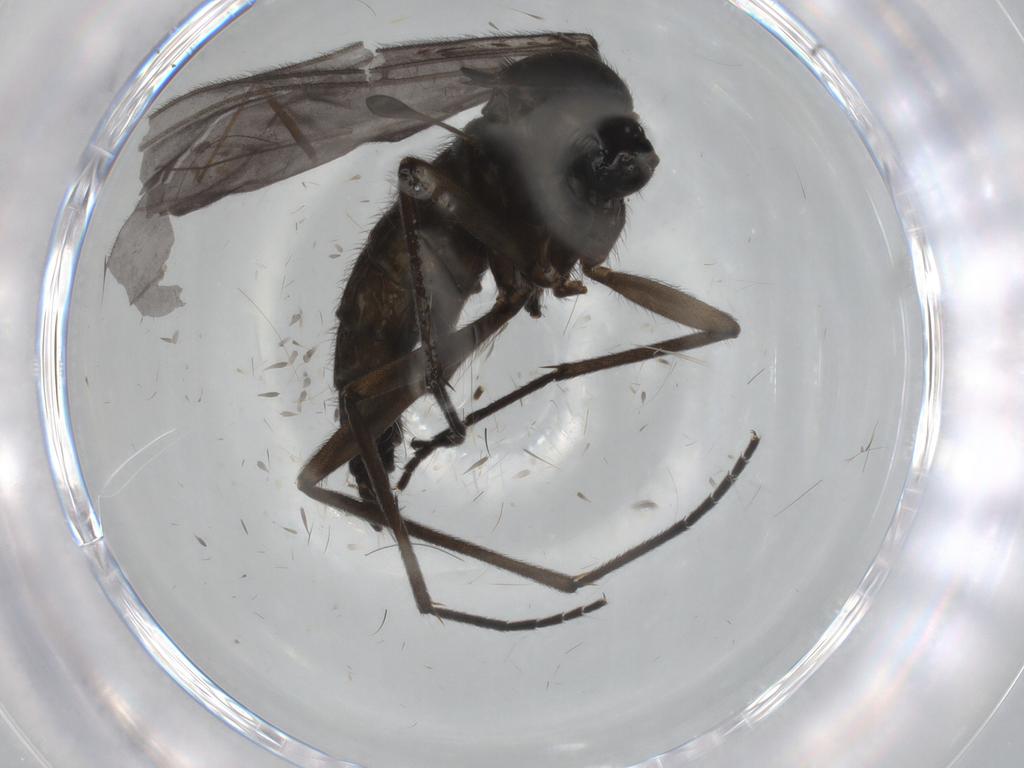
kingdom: Animalia
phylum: Arthropoda
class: Insecta
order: Diptera
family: Sciaridae
